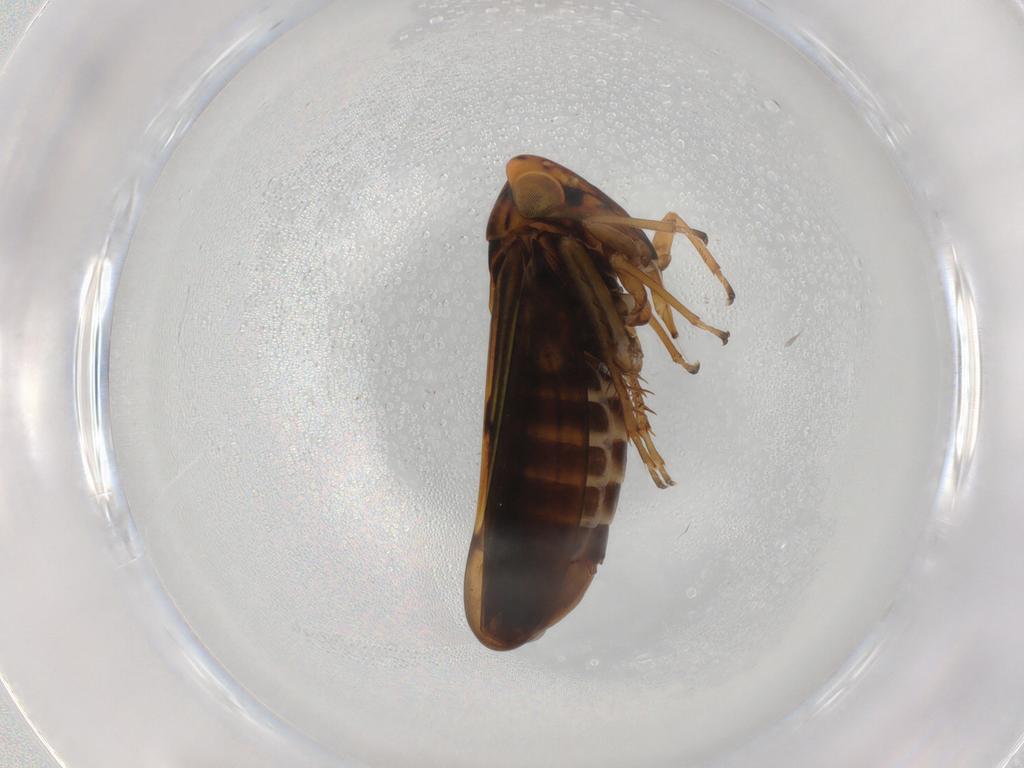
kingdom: Animalia
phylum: Arthropoda
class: Insecta
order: Hemiptera
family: Cicadellidae
